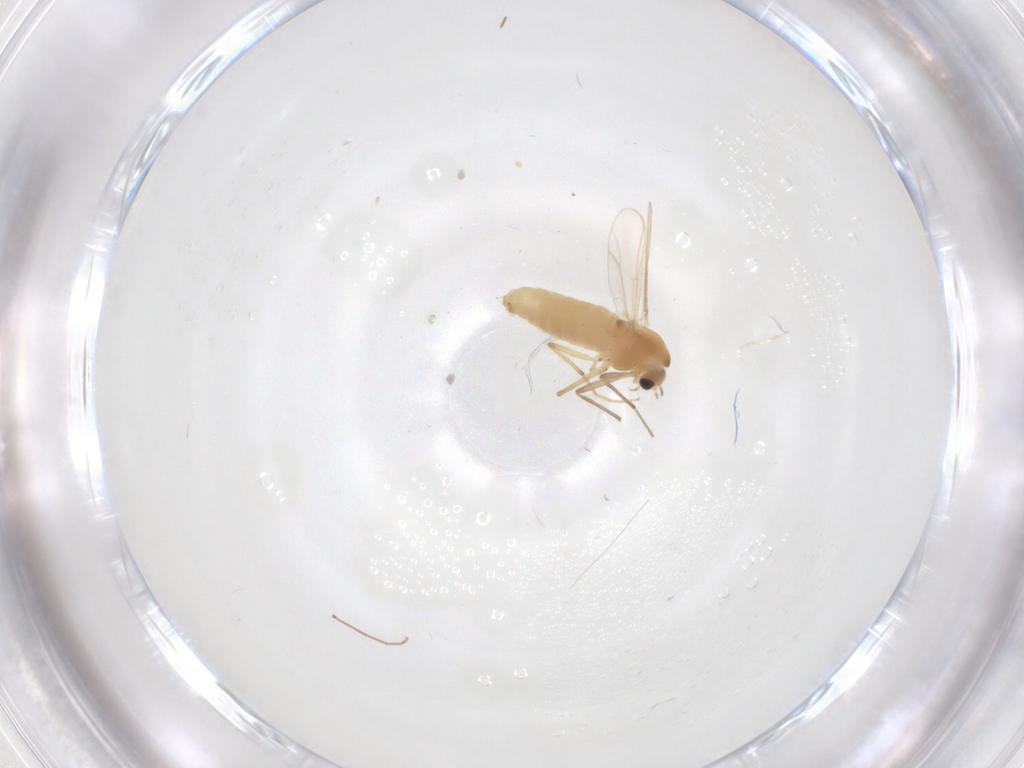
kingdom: Animalia
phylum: Arthropoda
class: Insecta
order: Diptera
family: Chironomidae
